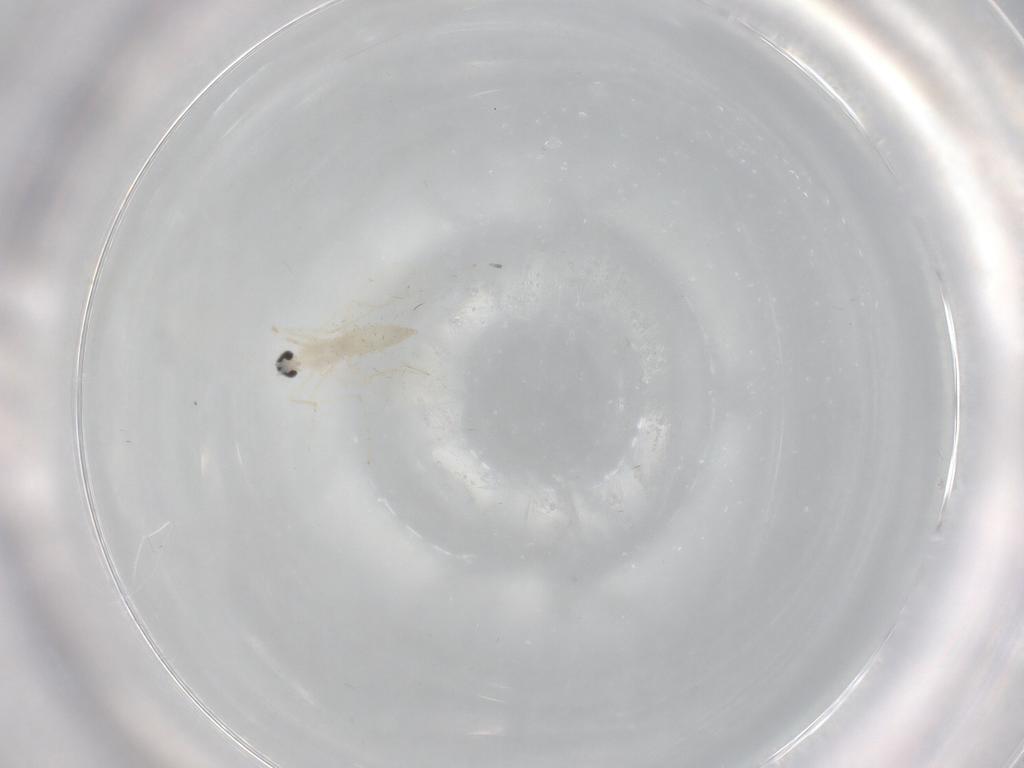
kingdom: Animalia
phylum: Arthropoda
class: Insecta
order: Diptera
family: Cecidomyiidae
